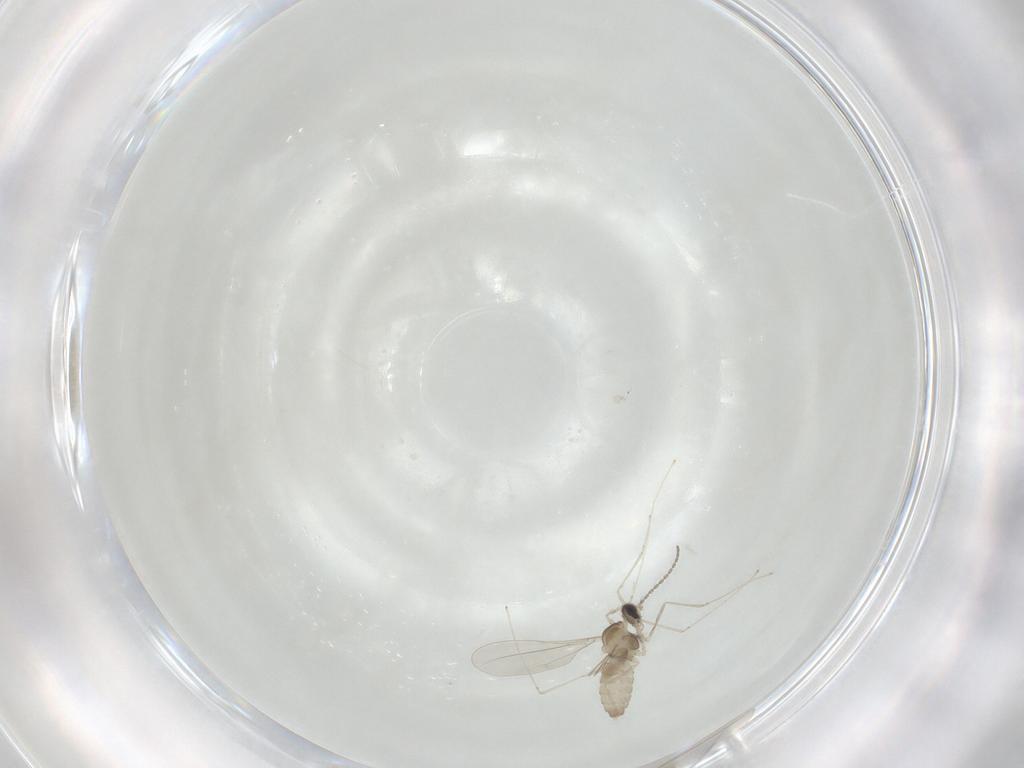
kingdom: Animalia
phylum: Arthropoda
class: Insecta
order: Diptera
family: Cecidomyiidae
